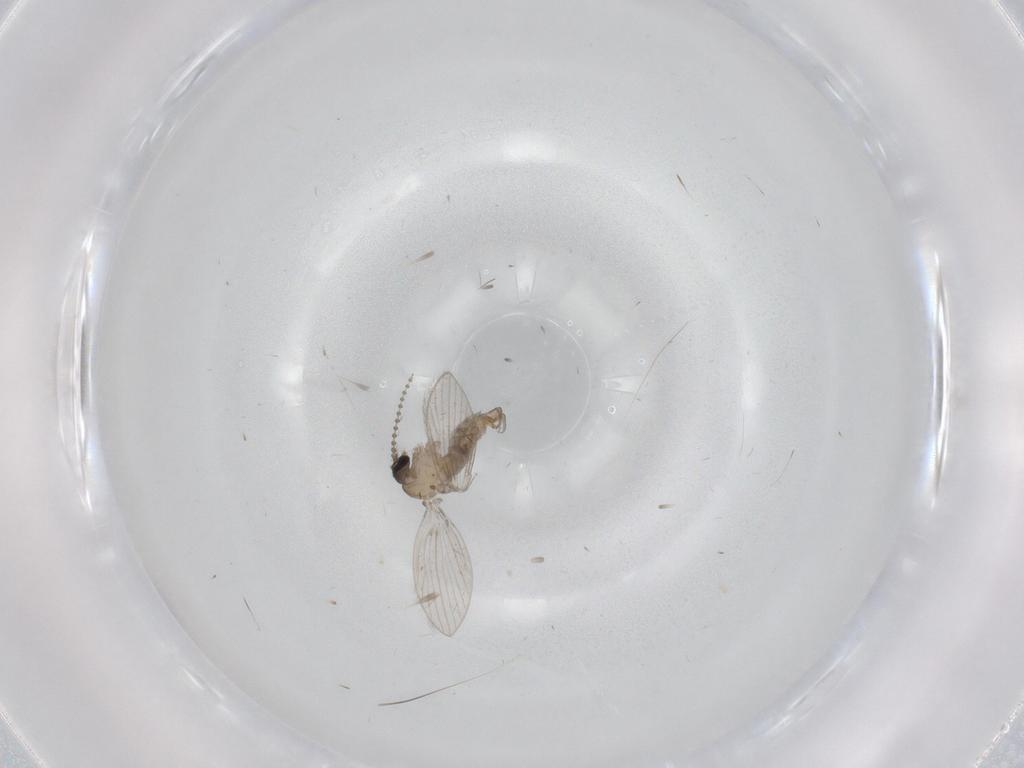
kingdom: Animalia
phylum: Arthropoda
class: Insecta
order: Diptera
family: Psychodidae
